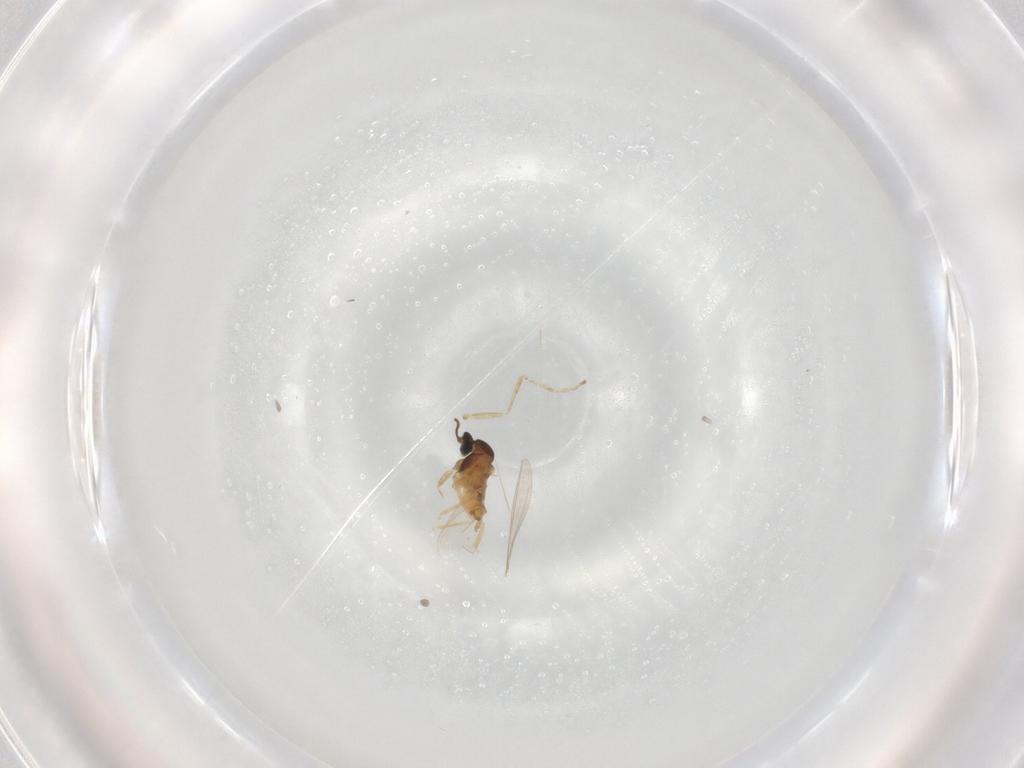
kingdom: Animalia
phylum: Arthropoda
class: Insecta
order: Diptera
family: Cecidomyiidae
